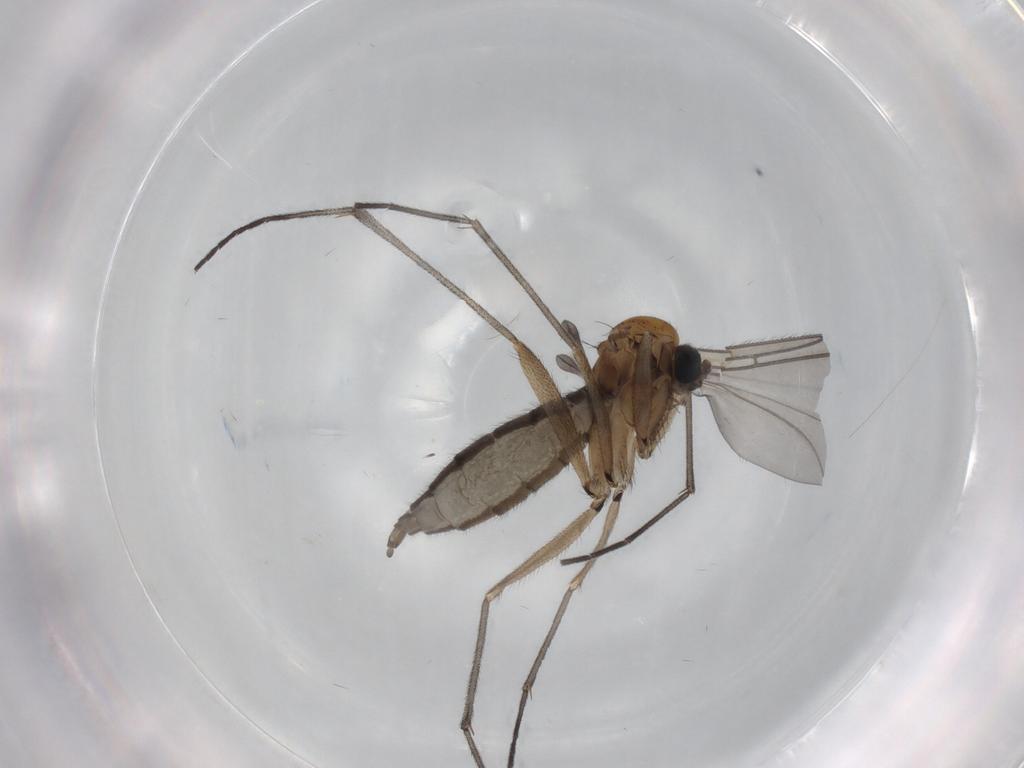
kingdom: Animalia
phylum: Arthropoda
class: Insecta
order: Diptera
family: Sciaridae
